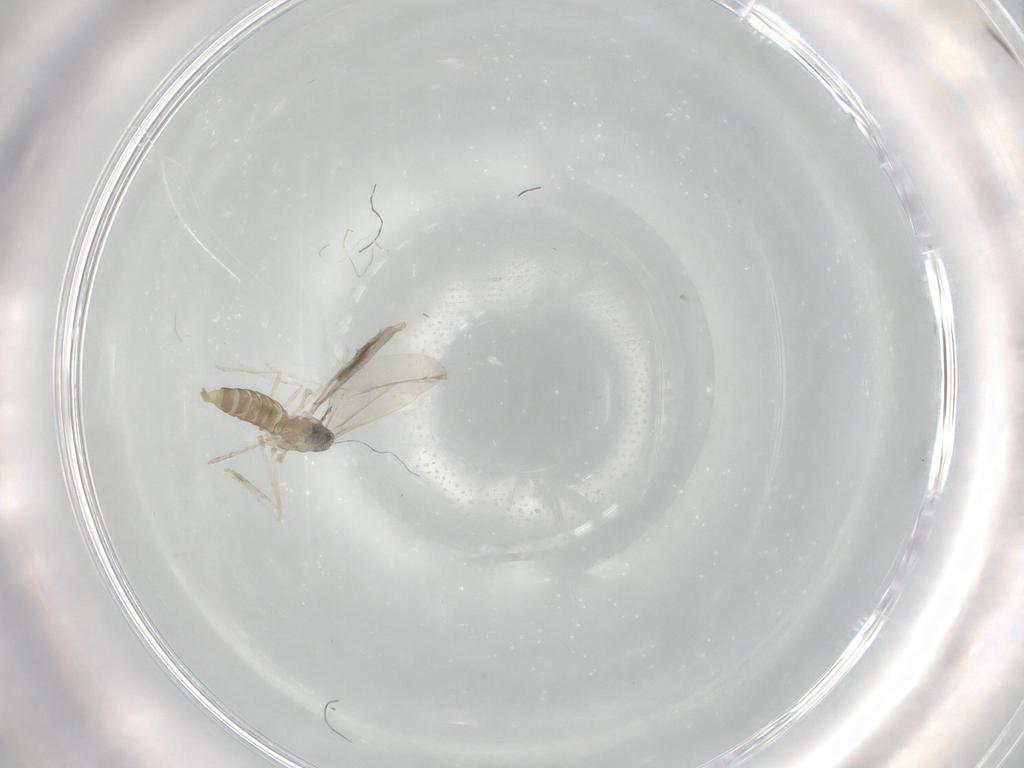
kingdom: Animalia
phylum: Arthropoda
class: Insecta
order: Diptera
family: Cecidomyiidae
